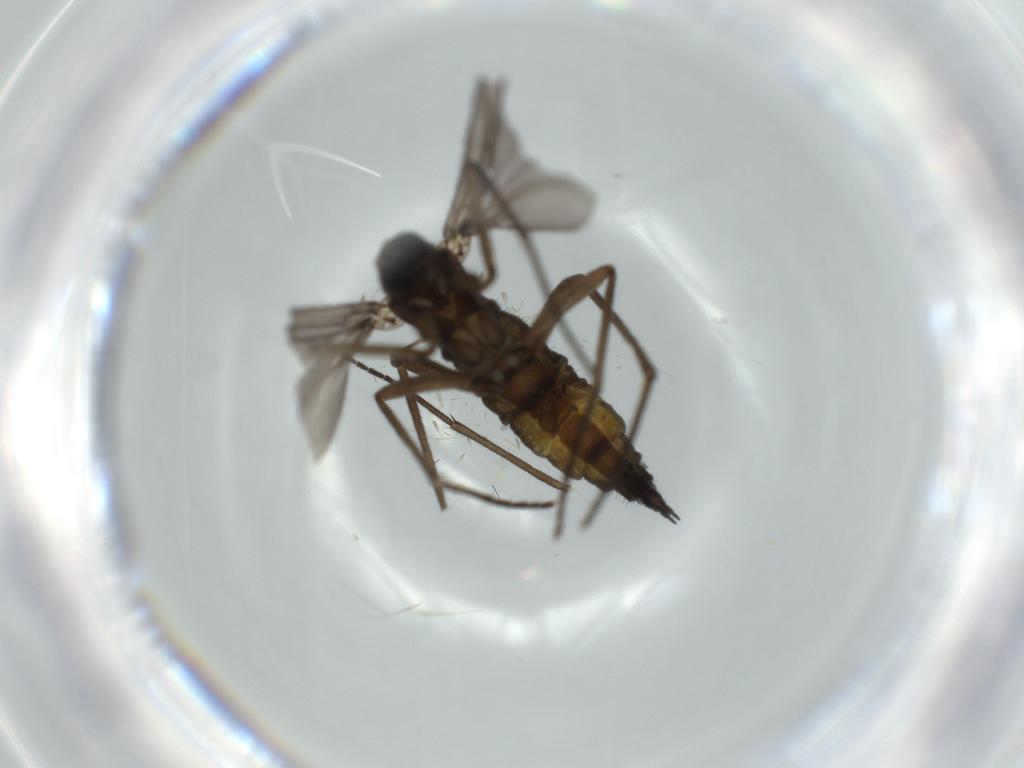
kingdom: Animalia
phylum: Arthropoda
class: Insecta
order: Diptera
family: Sciaridae
